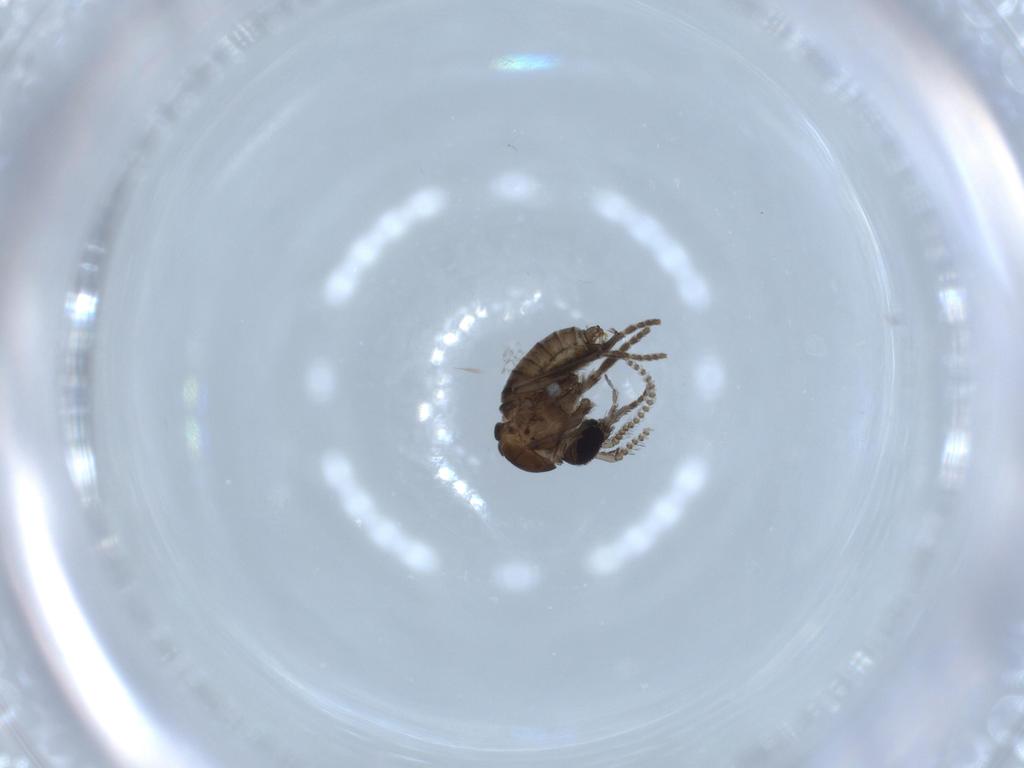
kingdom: Animalia
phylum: Arthropoda
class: Insecta
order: Diptera
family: Psychodidae
